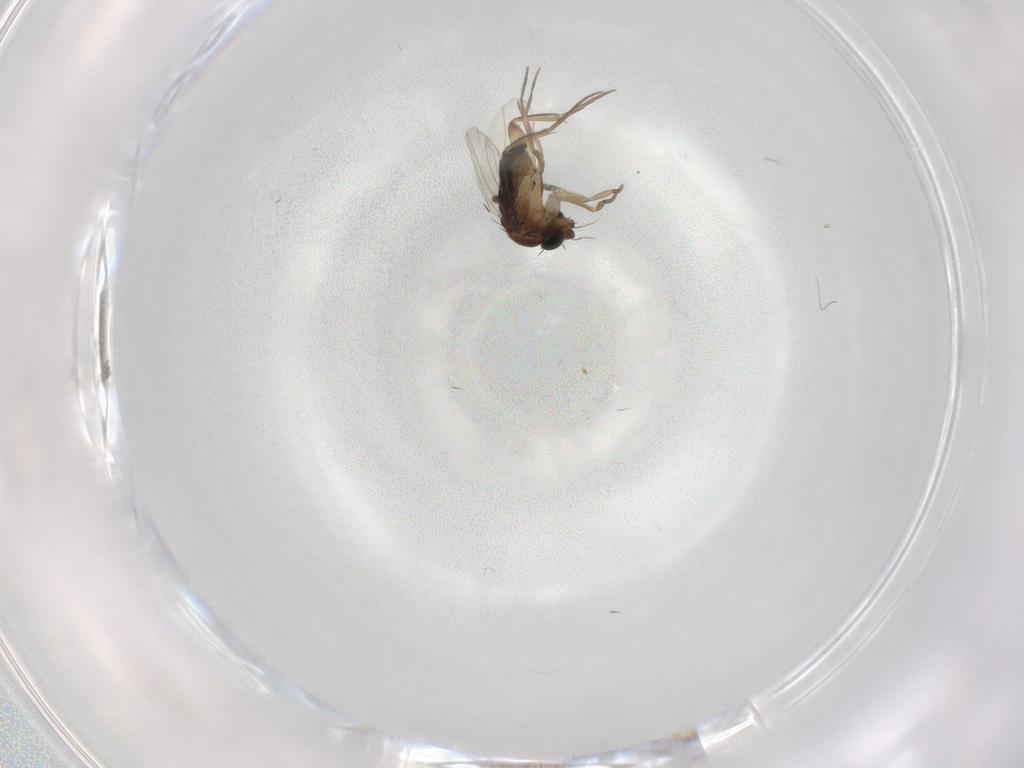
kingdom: Animalia
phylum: Arthropoda
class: Insecta
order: Diptera
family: Phoridae
